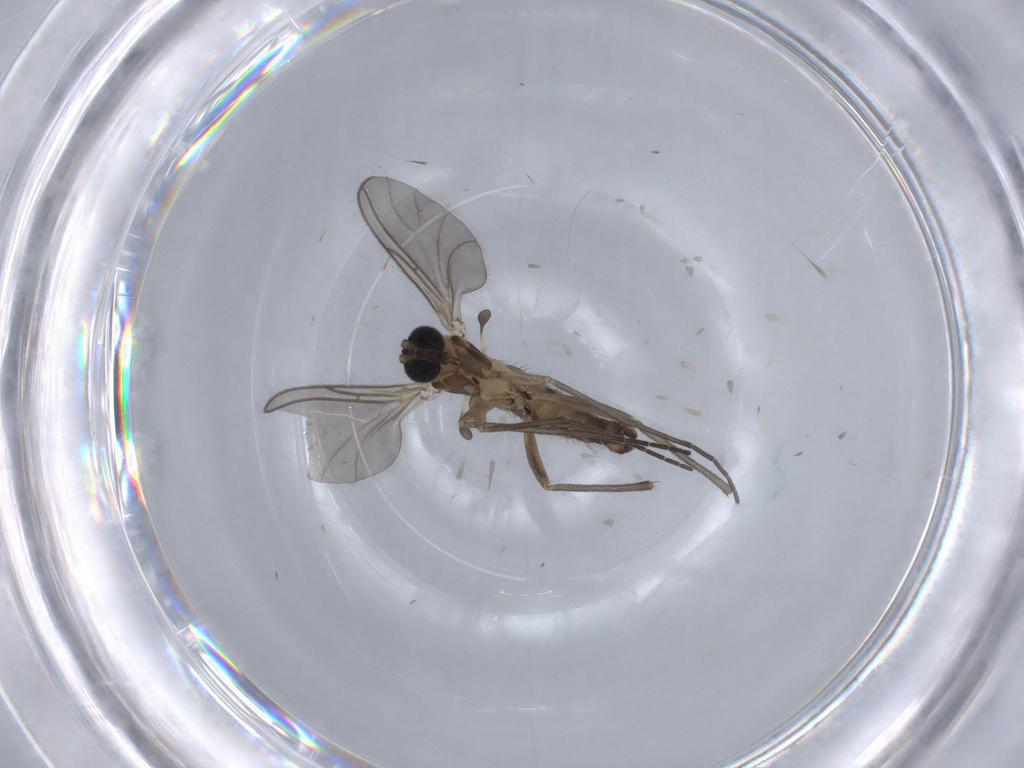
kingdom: Animalia
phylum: Arthropoda
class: Insecta
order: Diptera
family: Sciaridae
